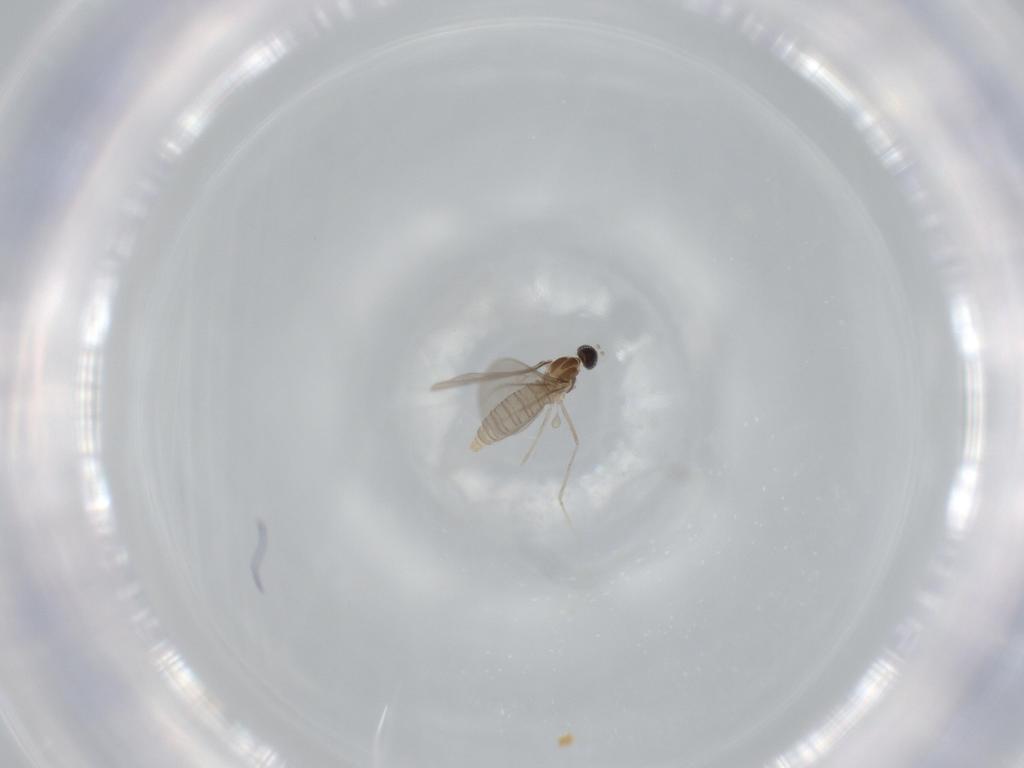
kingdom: Animalia
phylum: Arthropoda
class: Insecta
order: Diptera
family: Cecidomyiidae
